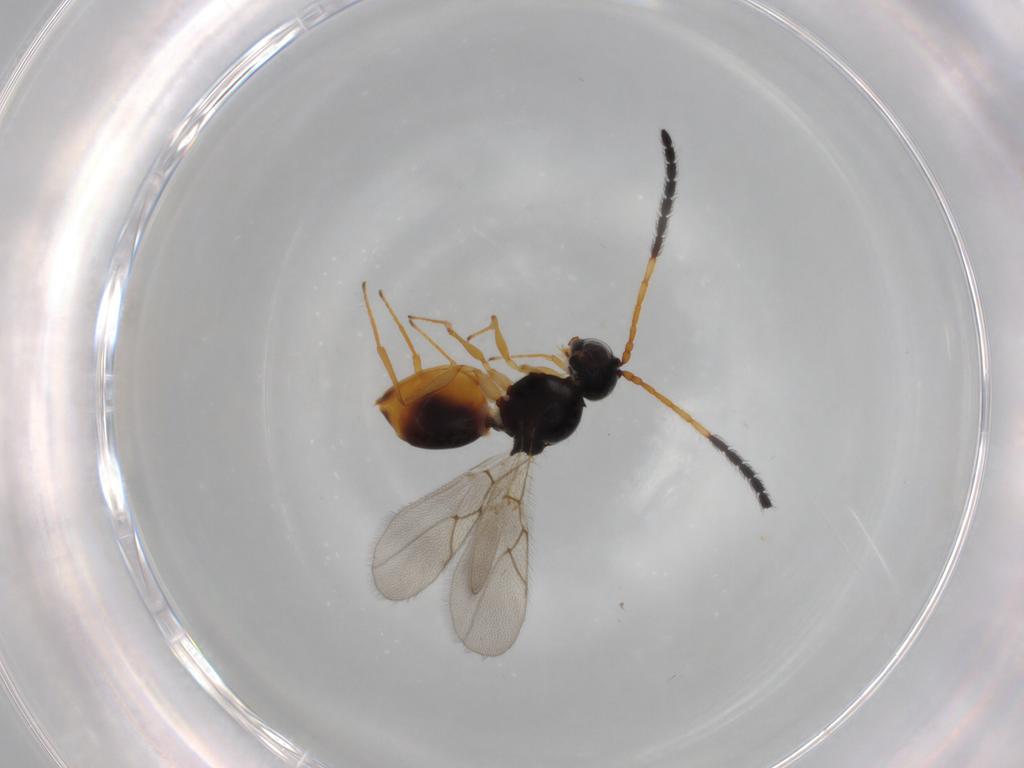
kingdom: Animalia
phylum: Arthropoda
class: Insecta
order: Hymenoptera
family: Figitidae
